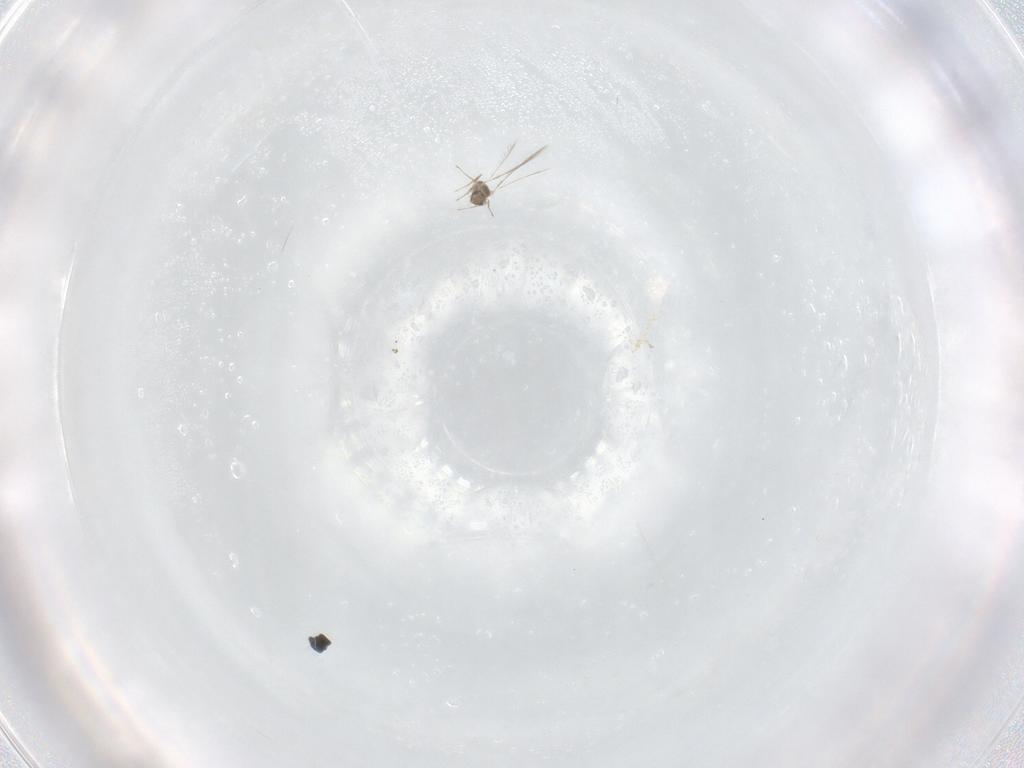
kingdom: Animalia
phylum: Arthropoda
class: Insecta
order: Hymenoptera
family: Mymaridae
